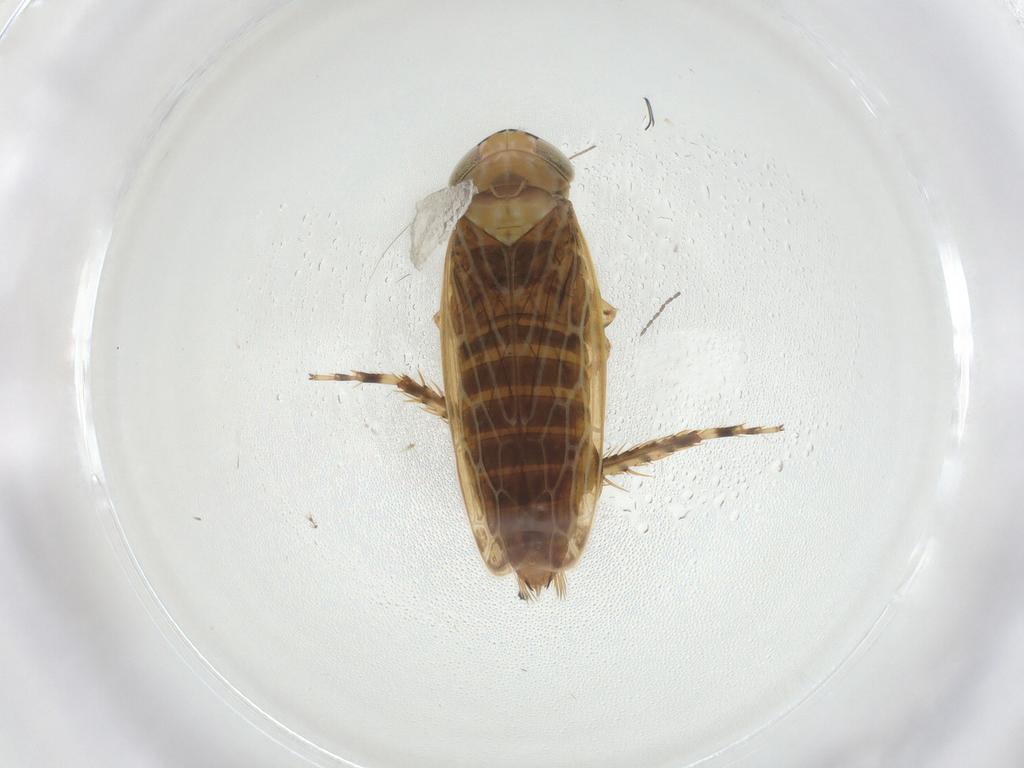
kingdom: Animalia
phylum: Arthropoda
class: Insecta
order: Hemiptera
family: Cicadellidae
